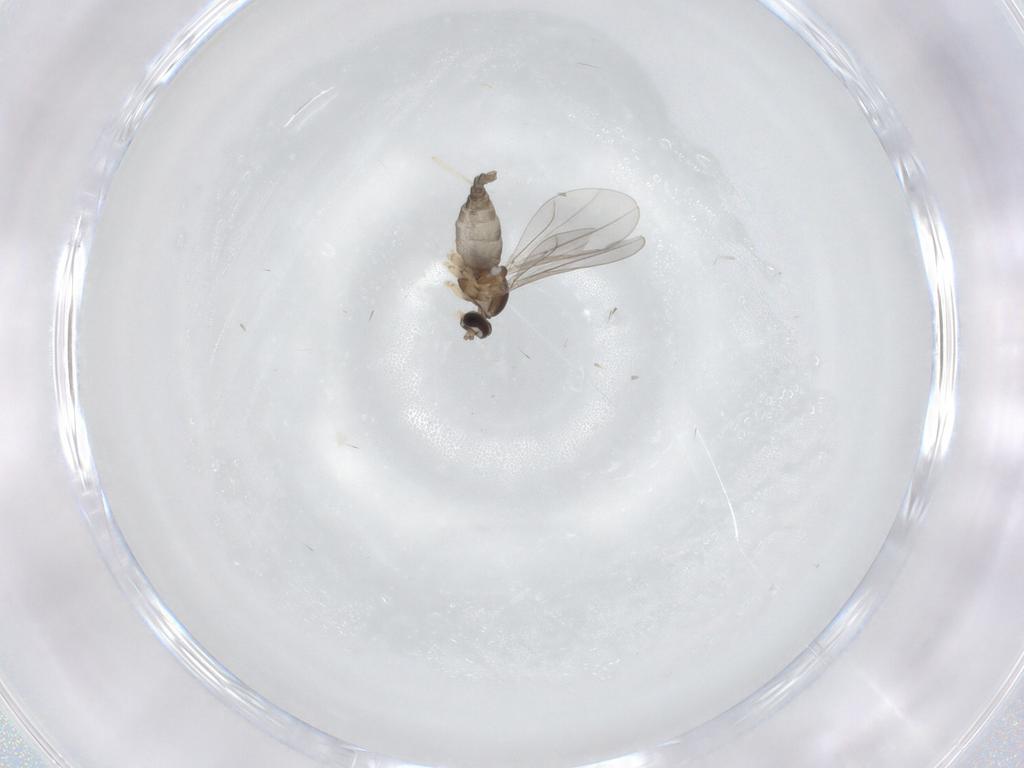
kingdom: Animalia
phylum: Arthropoda
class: Insecta
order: Diptera
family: Cecidomyiidae
